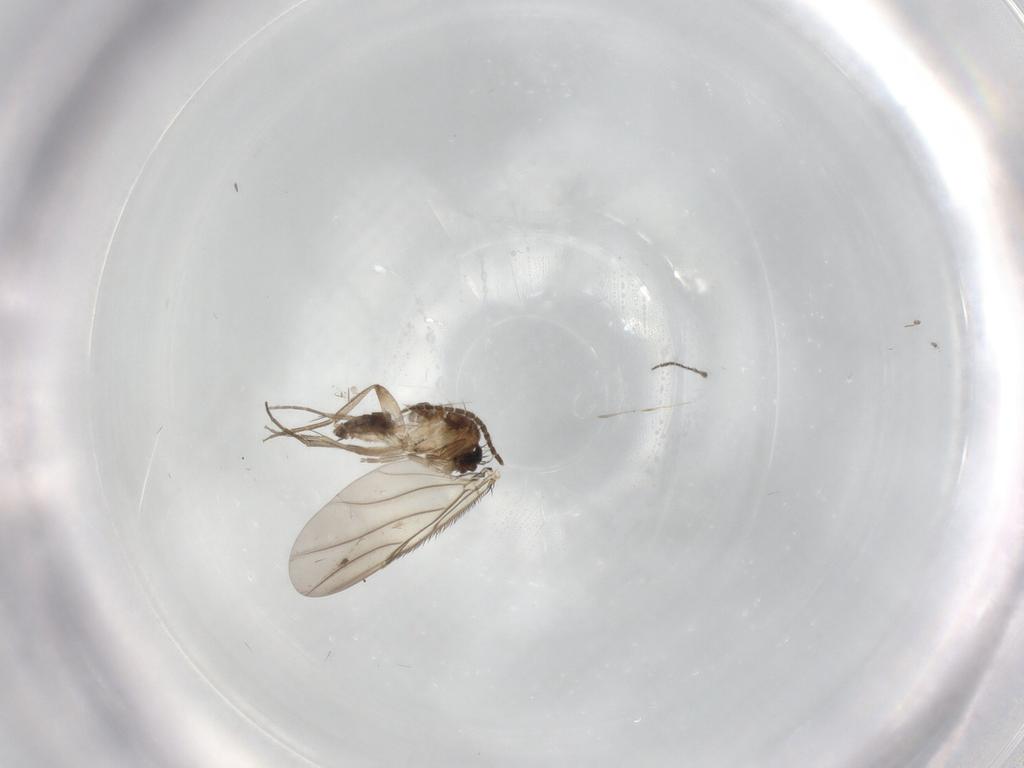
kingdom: Animalia
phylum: Arthropoda
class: Insecta
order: Diptera
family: Phoridae
